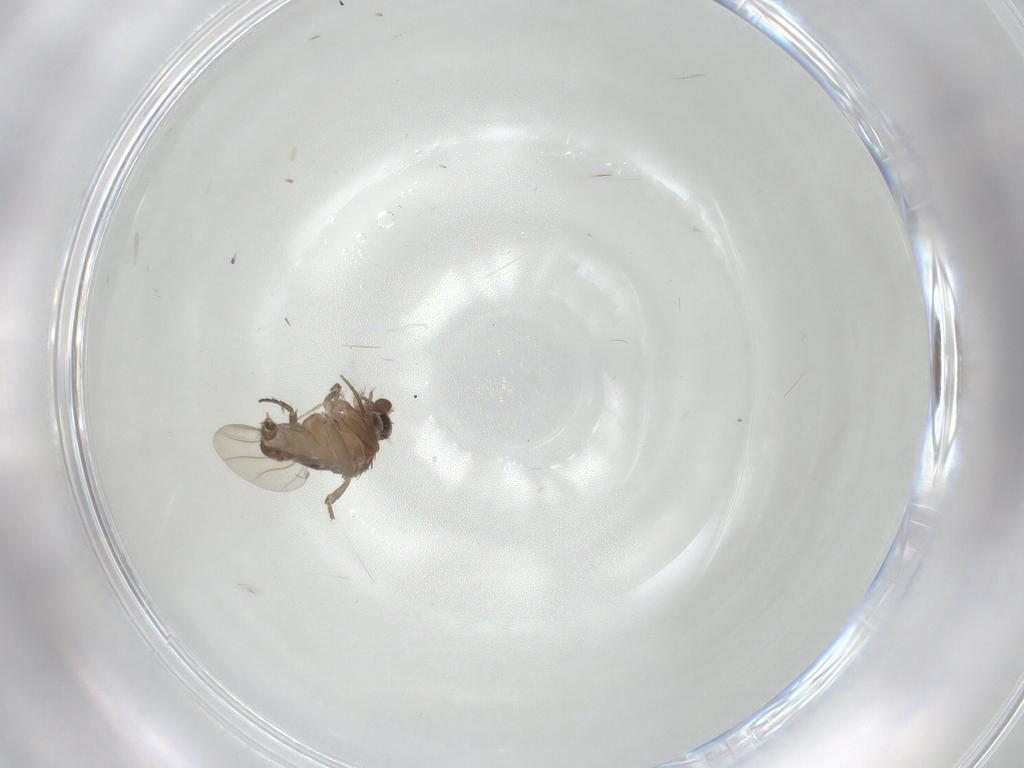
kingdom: Animalia
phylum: Arthropoda
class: Insecta
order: Diptera
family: Phoridae
